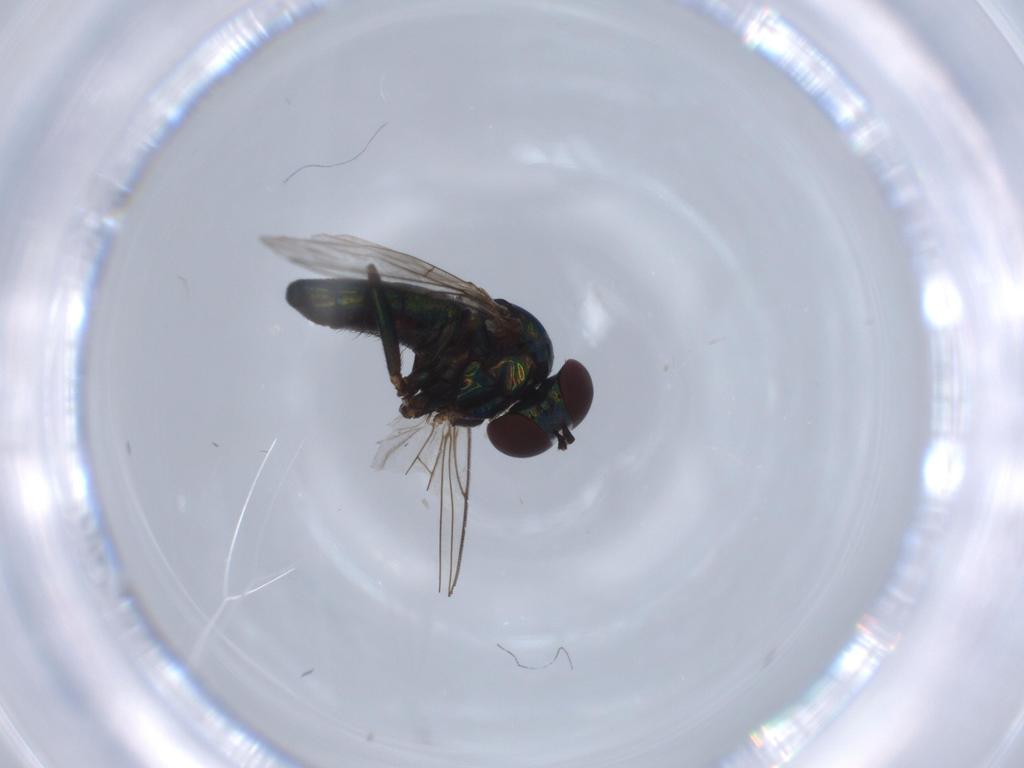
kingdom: Animalia
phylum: Arthropoda
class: Insecta
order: Diptera
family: Dolichopodidae
